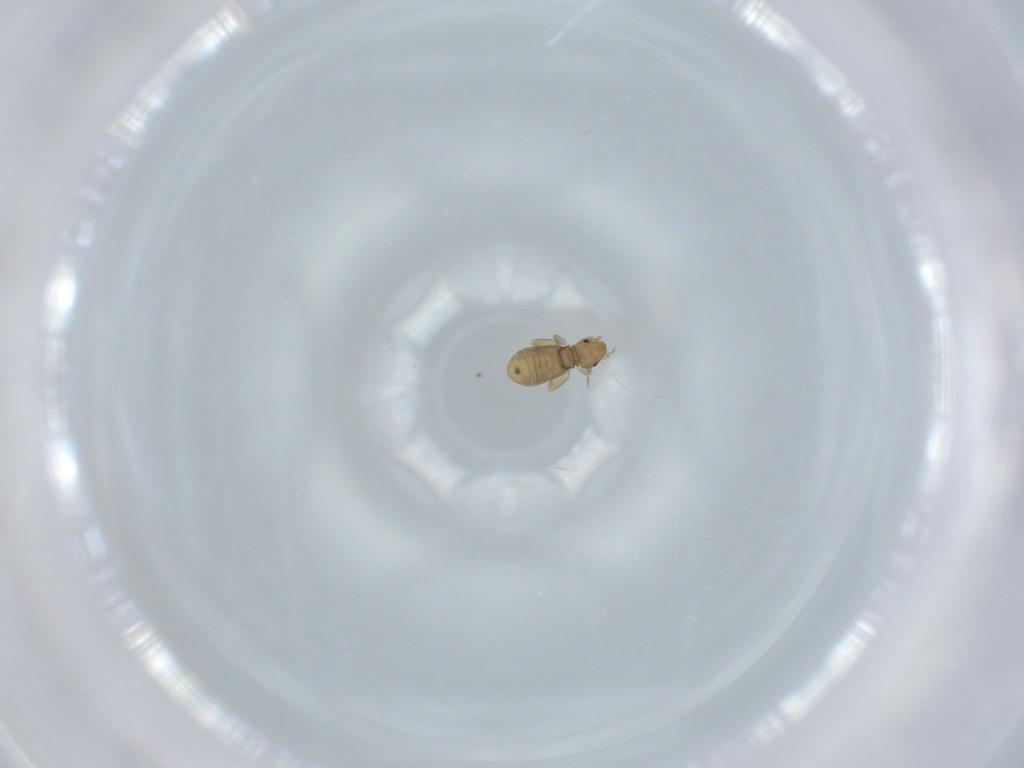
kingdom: Animalia
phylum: Arthropoda
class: Insecta
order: Psocodea
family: Liposcelididae
